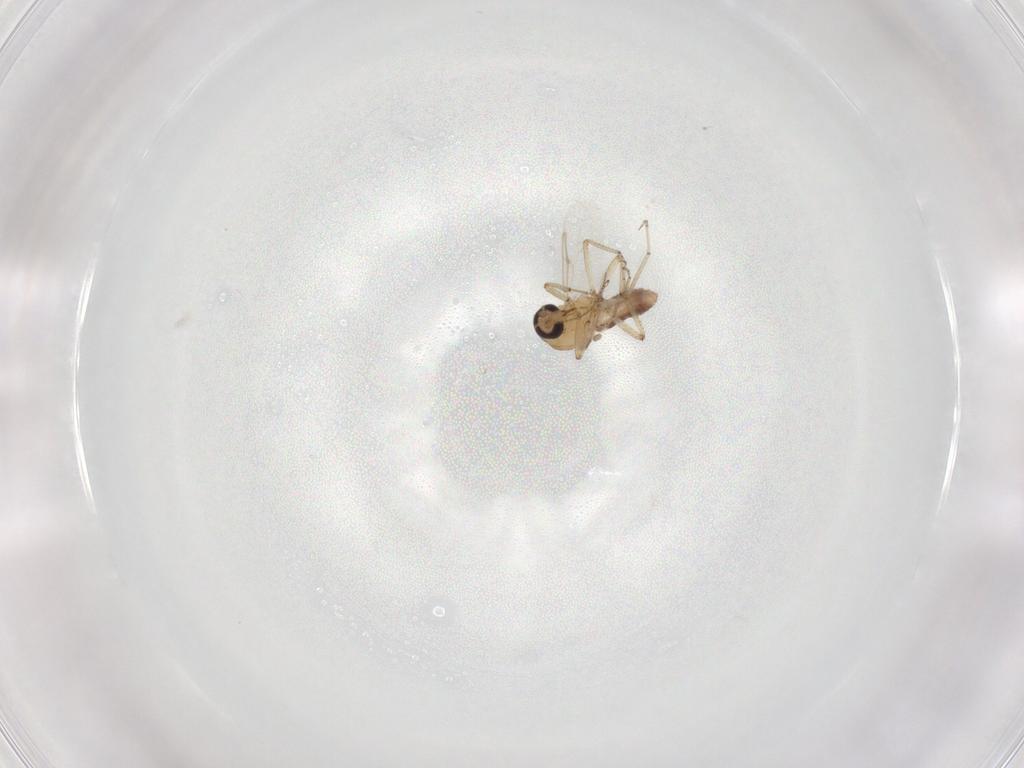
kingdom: Animalia
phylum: Arthropoda
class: Insecta
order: Diptera
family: Ceratopogonidae
